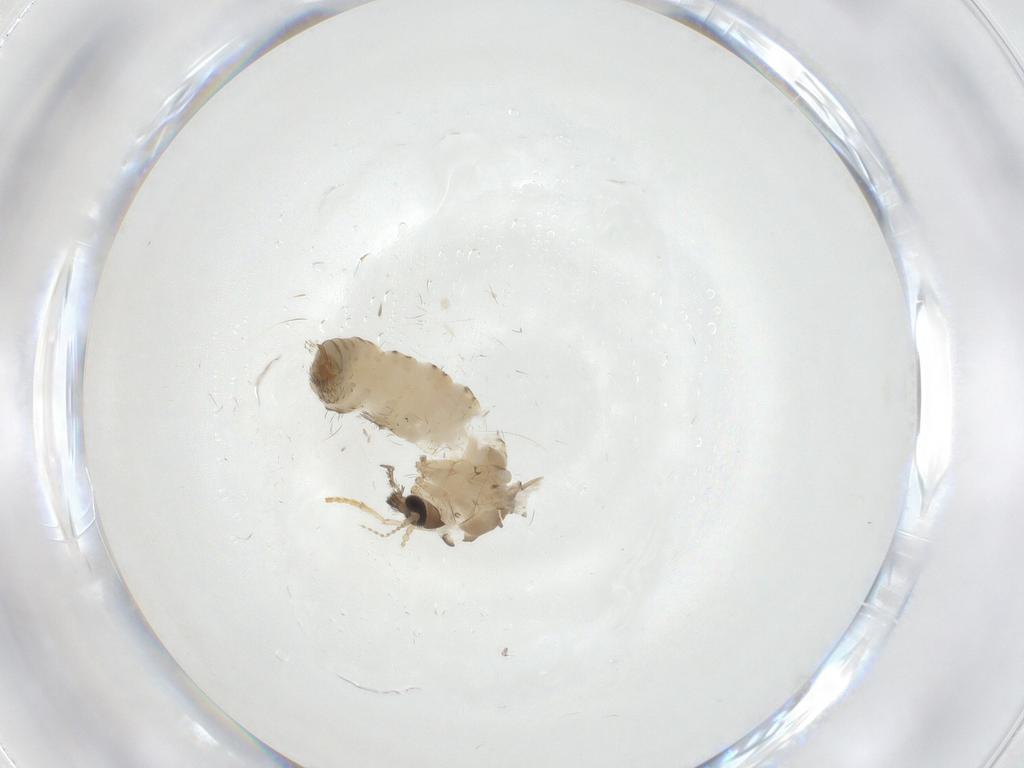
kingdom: Animalia
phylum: Arthropoda
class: Insecta
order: Diptera
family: Psychodidae
